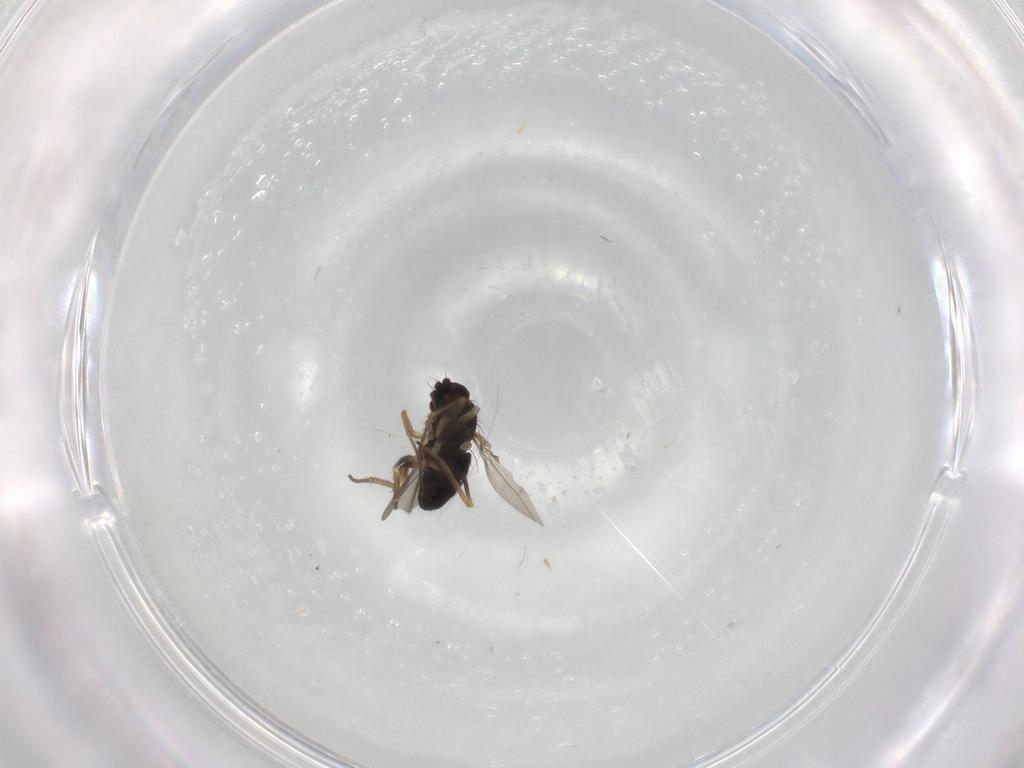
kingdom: Animalia
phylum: Arthropoda
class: Insecta
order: Diptera
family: Dolichopodidae
